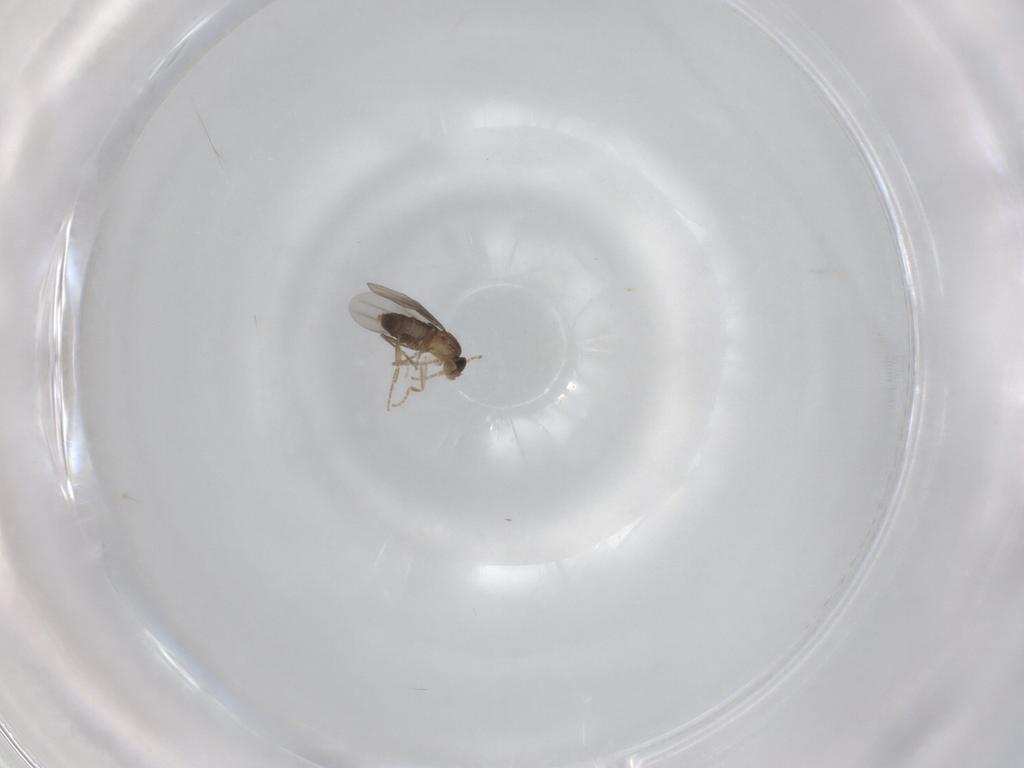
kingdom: Animalia
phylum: Arthropoda
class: Insecta
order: Diptera
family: Phoridae
